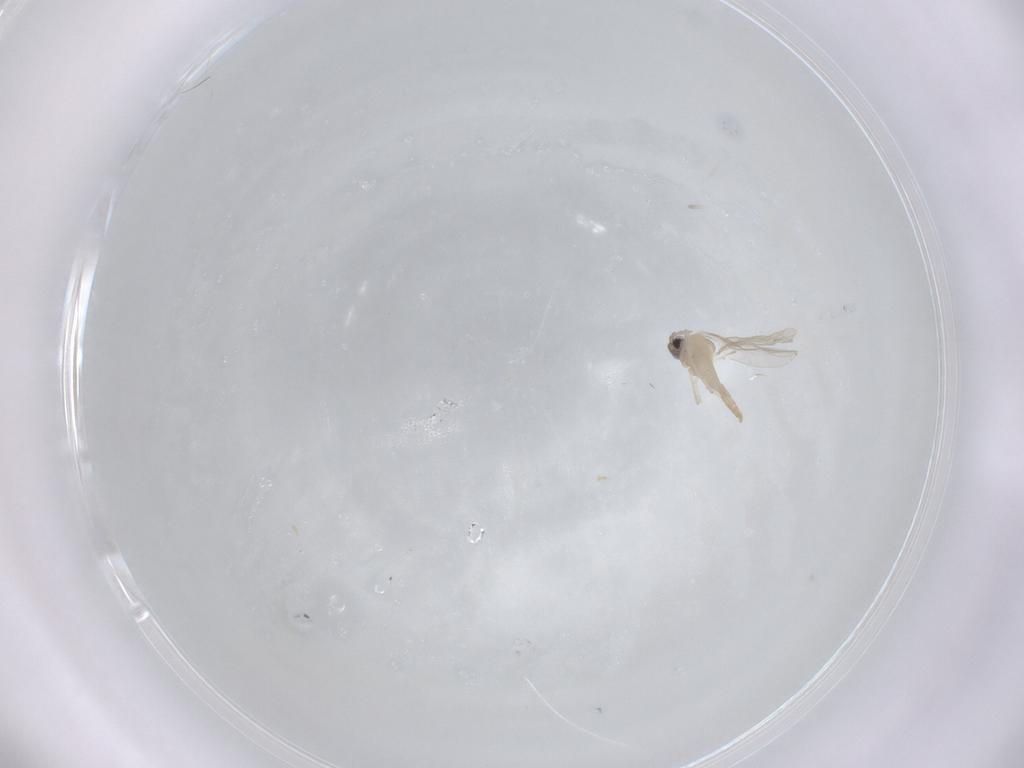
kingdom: Animalia
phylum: Arthropoda
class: Insecta
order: Diptera
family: Cecidomyiidae
